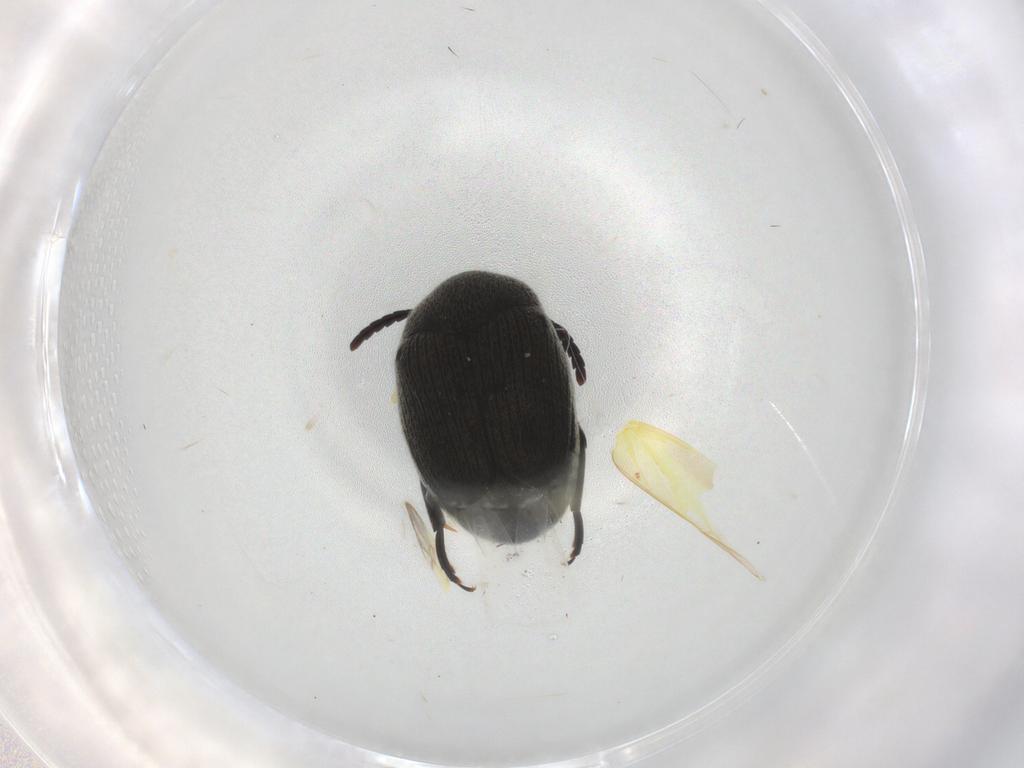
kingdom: Animalia
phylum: Arthropoda
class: Insecta
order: Coleoptera
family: Chrysomelidae
